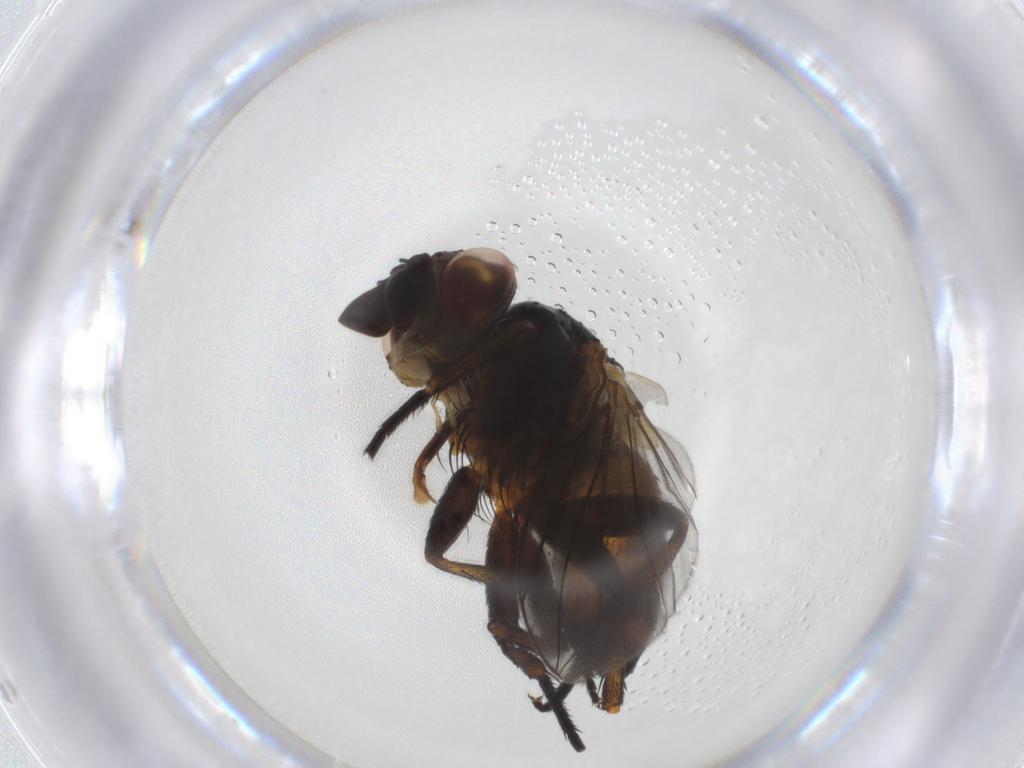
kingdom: Animalia
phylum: Arthropoda
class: Insecta
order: Diptera
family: Tachinidae
